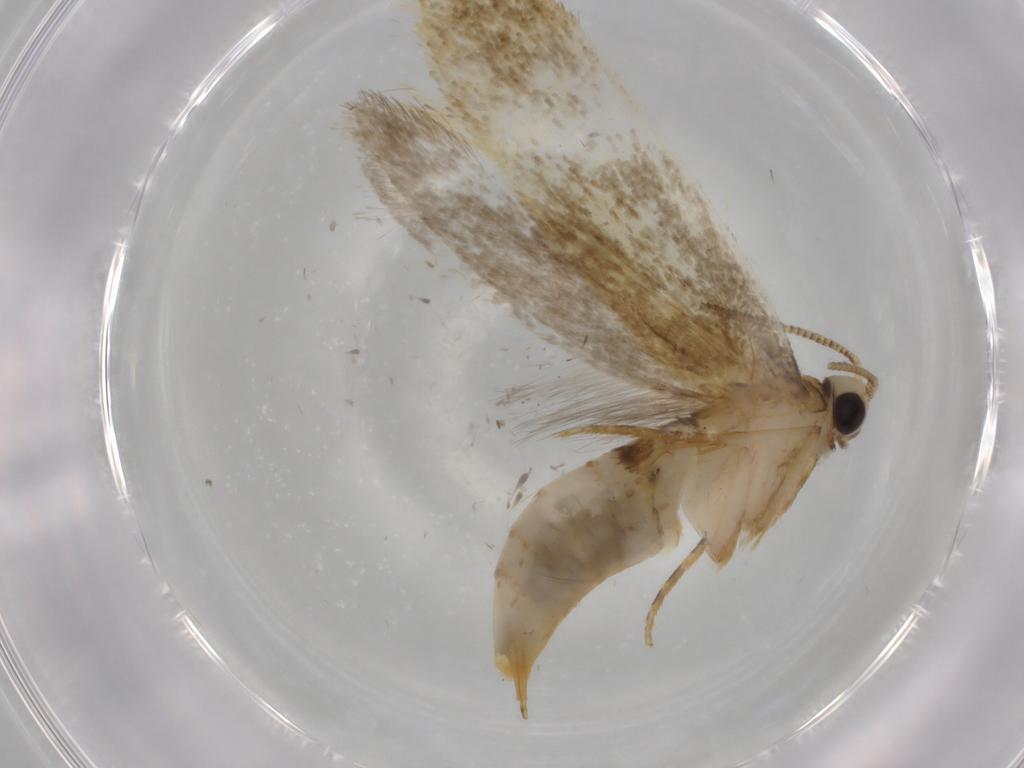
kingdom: Animalia
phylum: Arthropoda
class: Insecta
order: Lepidoptera
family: Tineidae
